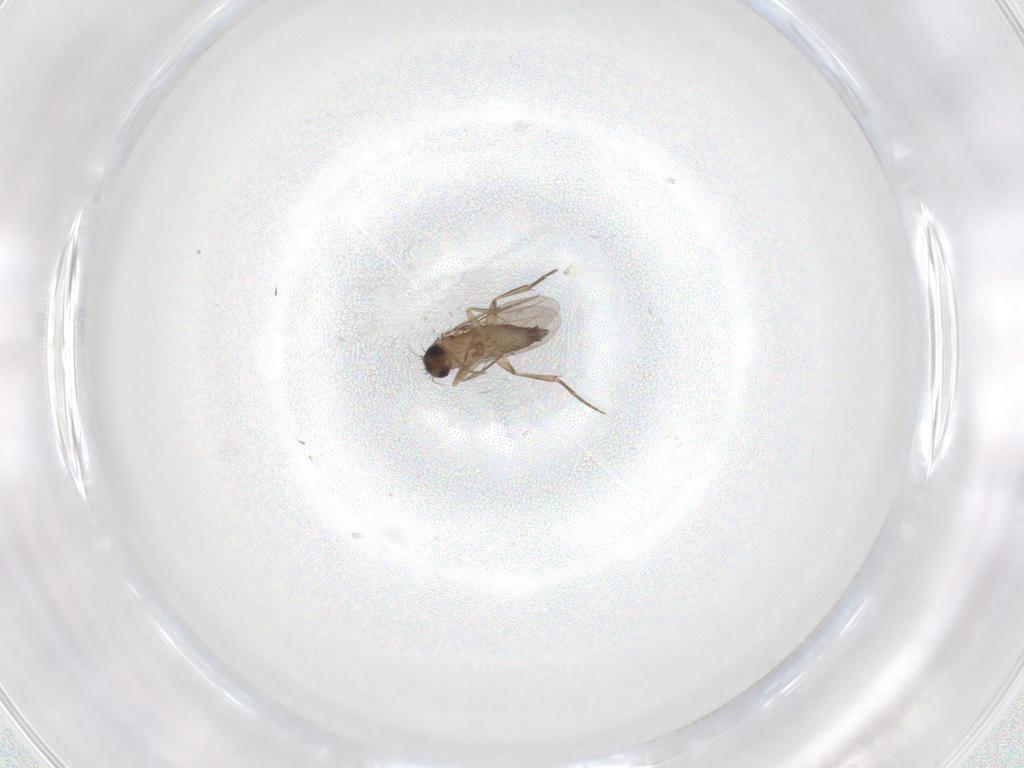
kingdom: Animalia
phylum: Arthropoda
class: Insecta
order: Diptera
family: Phoridae
